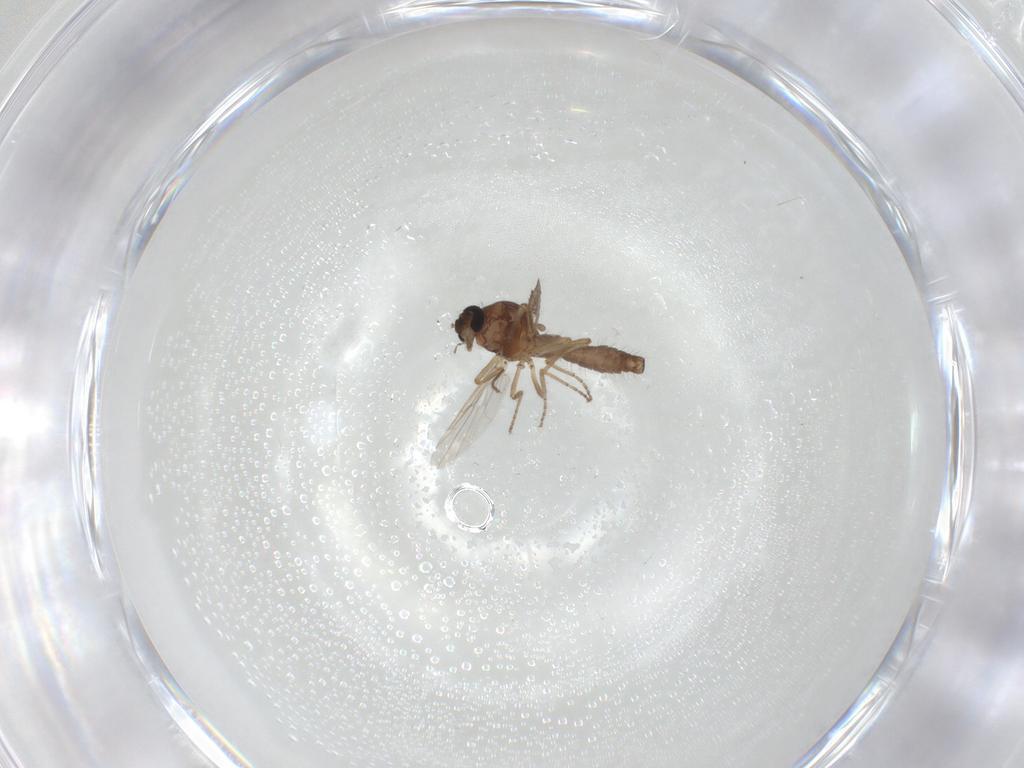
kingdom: Animalia
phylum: Arthropoda
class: Insecta
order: Diptera
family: Ceratopogonidae
